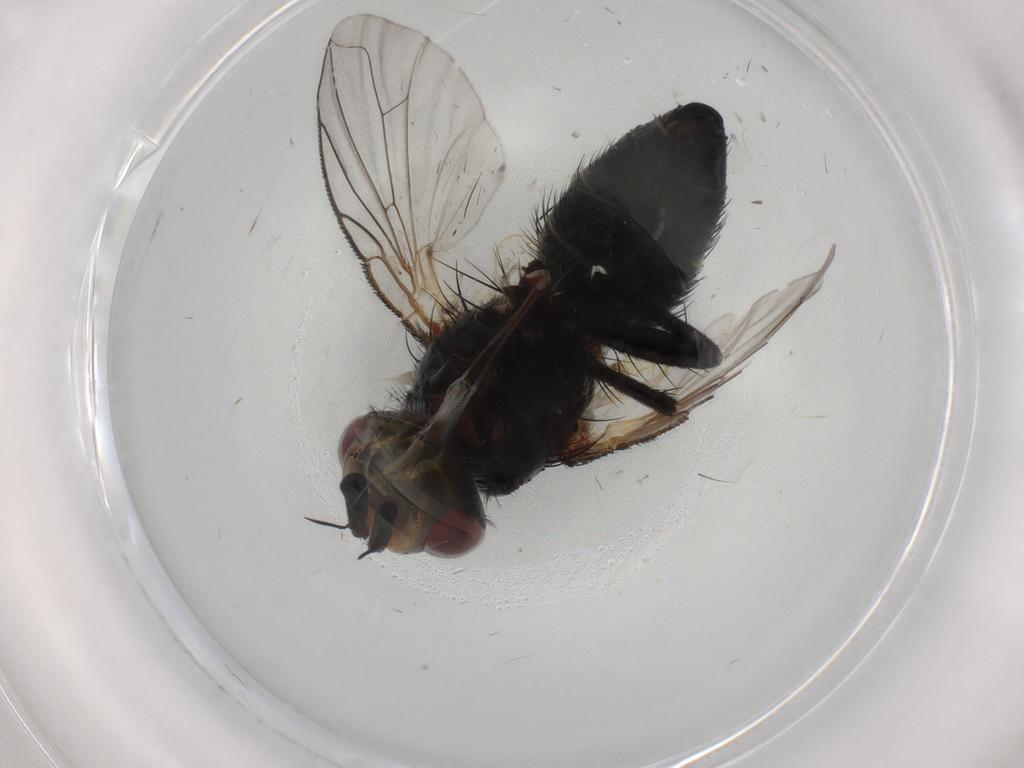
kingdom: Animalia
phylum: Arthropoda
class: Insecta
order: Diptera
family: Tachinidae
